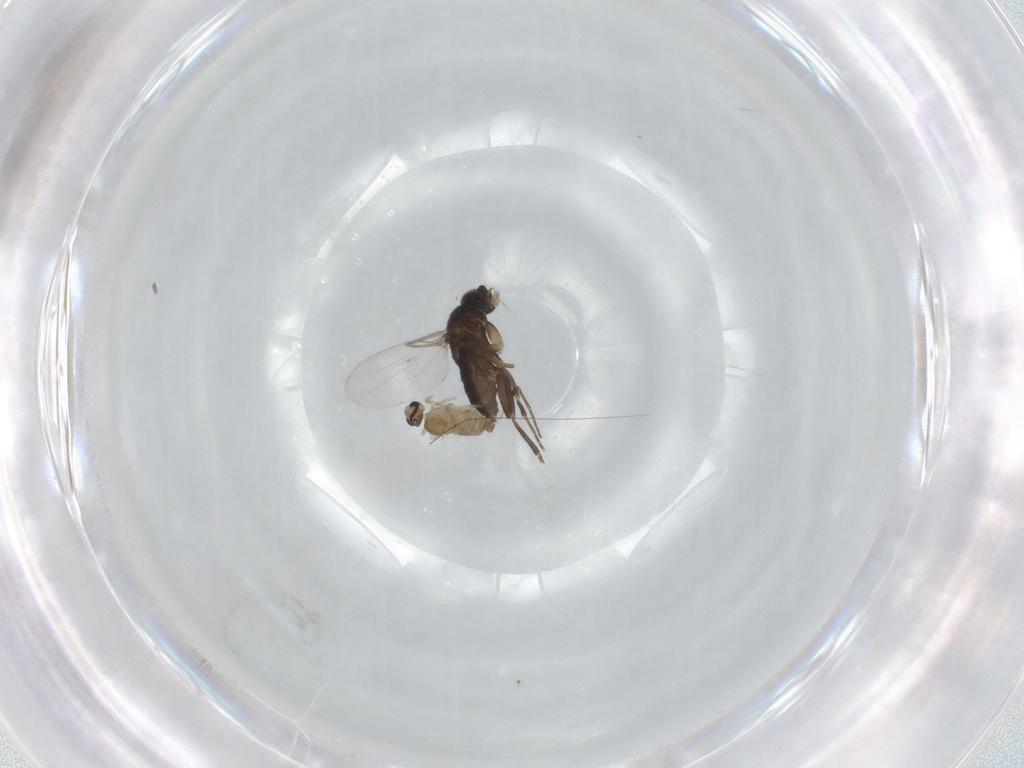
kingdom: Animalia
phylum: Arthropoda
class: Insecta
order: Diptera
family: Cecidomyiidae
